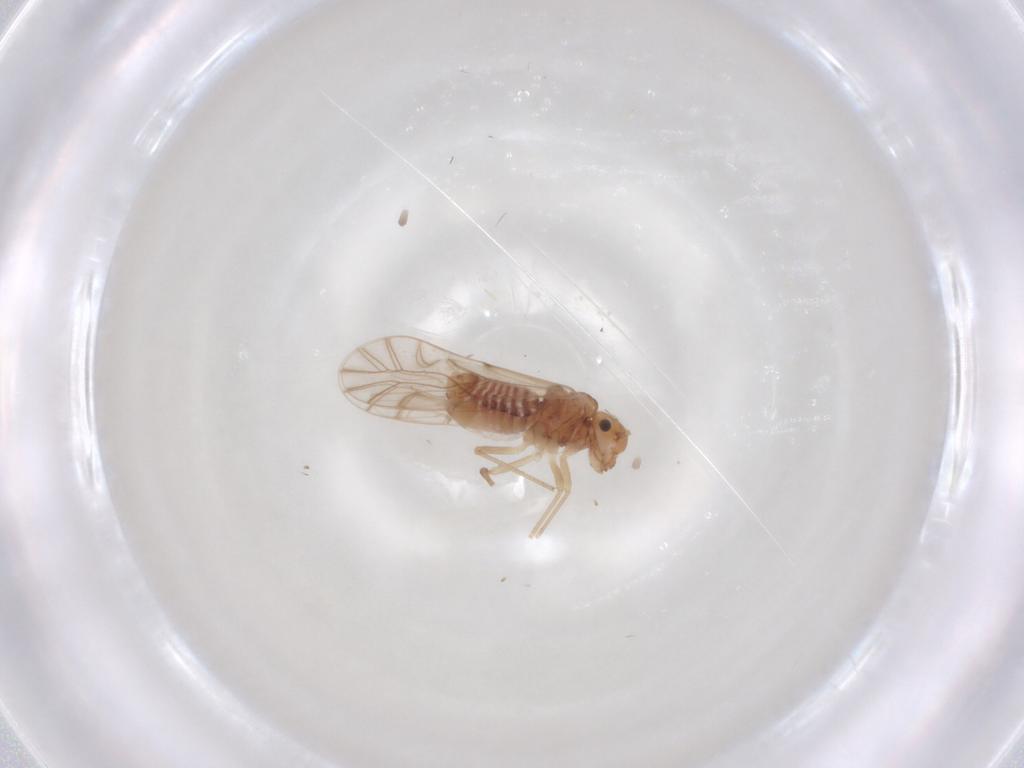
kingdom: Animalia
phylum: Arthropoda
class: Insecta
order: Psocodea
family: Lachesillidae
